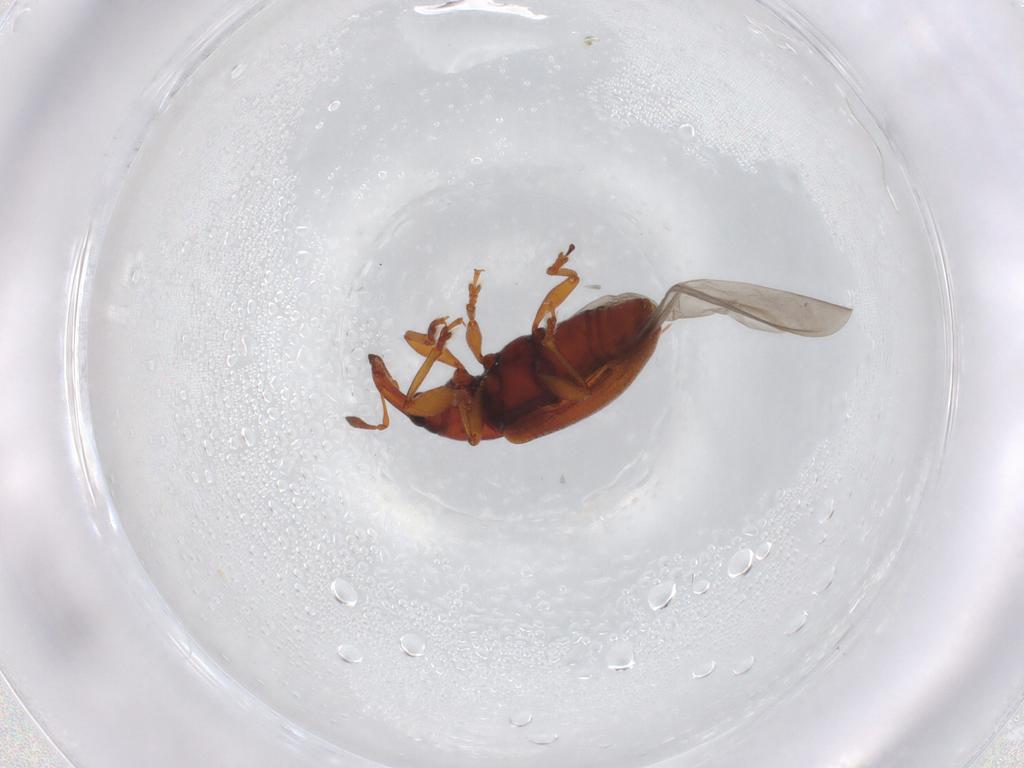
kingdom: Animalia
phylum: Arthropoda
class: Insecta
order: Coleoptera
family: Curculionidae
